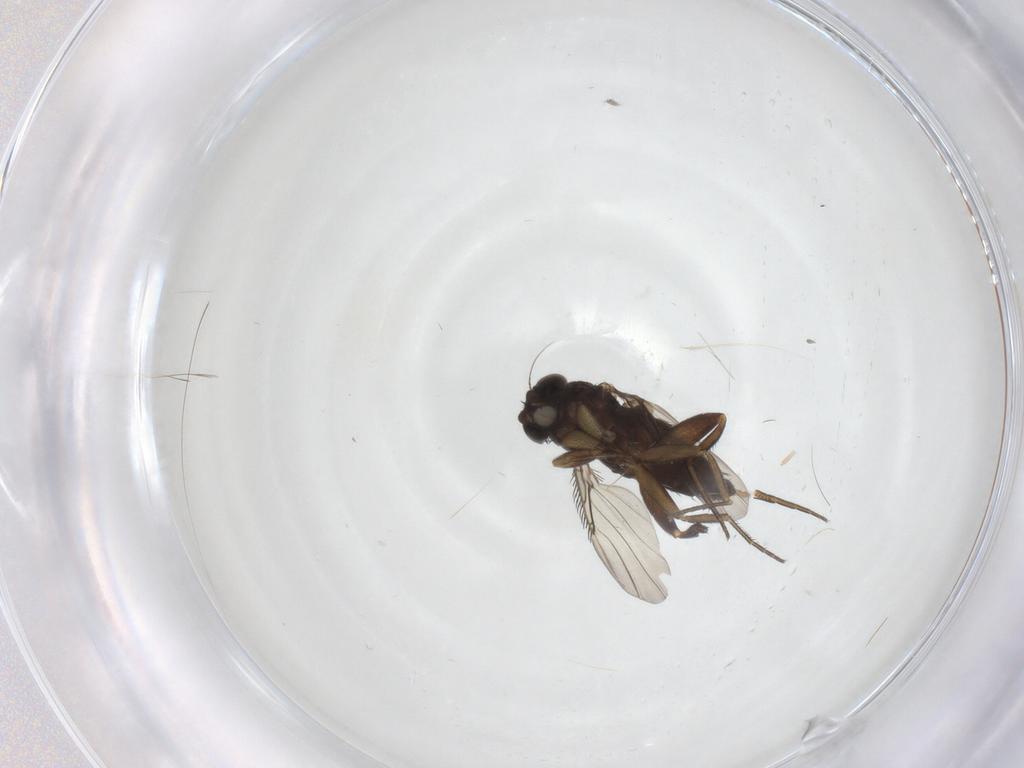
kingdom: Animalia
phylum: Arthropoda
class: Insecta
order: Diptera
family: Phoridae
